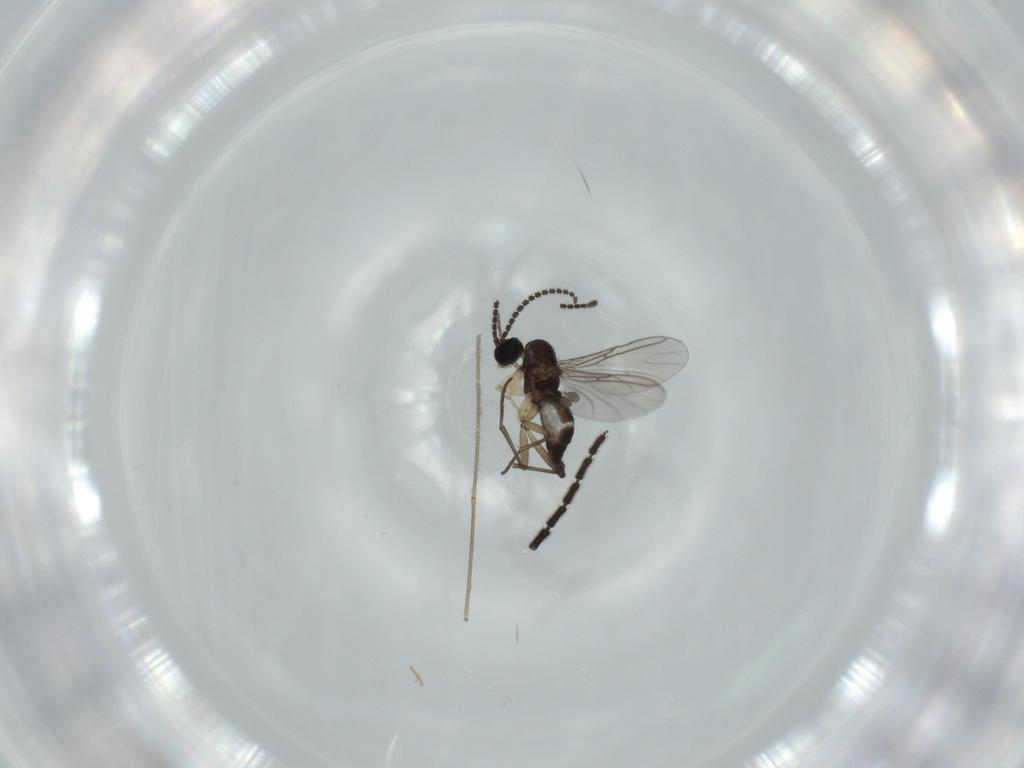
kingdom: Animalia
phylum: Arthropoda
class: Insecta
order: Diptera
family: Sciaridae
